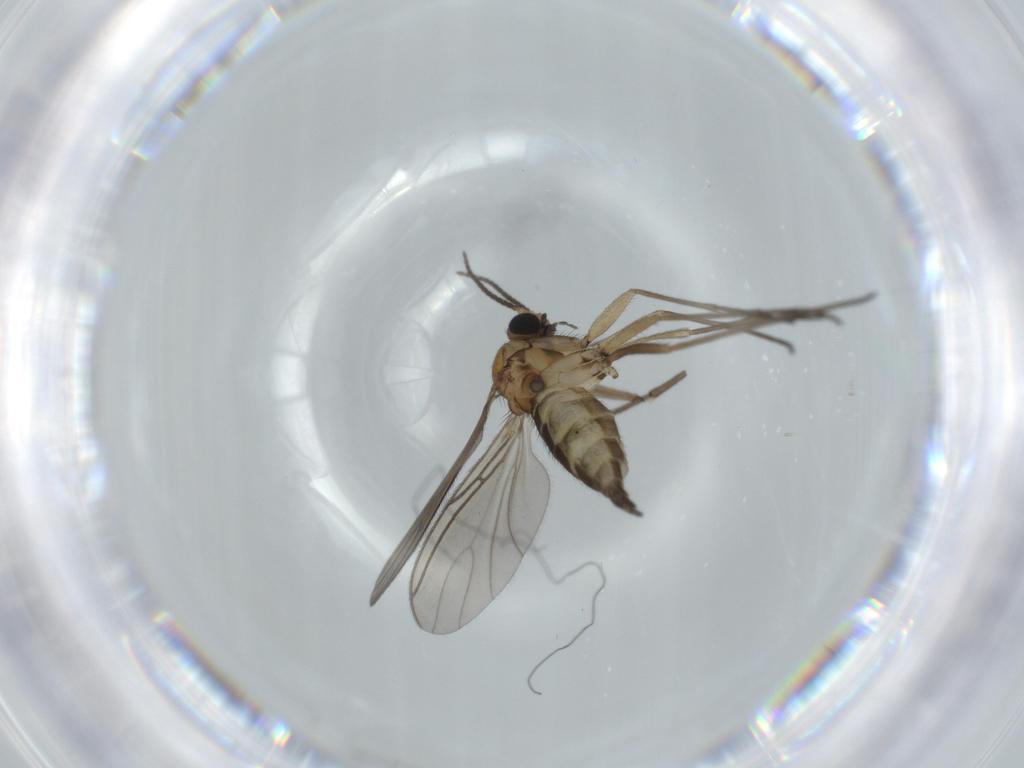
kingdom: Animalia
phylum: Arthropoda
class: Insecta
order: Diptera
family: Sciaridae
